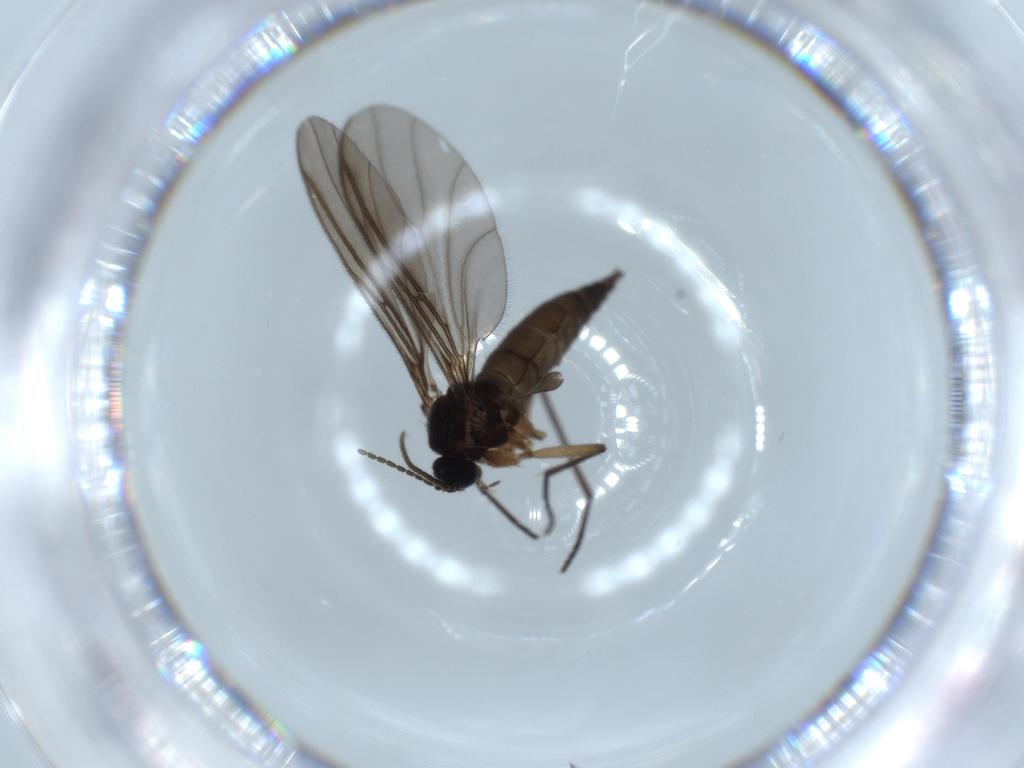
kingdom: Animalia
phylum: Arthropoda
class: Insecta
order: Diptera
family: Sciaridae
